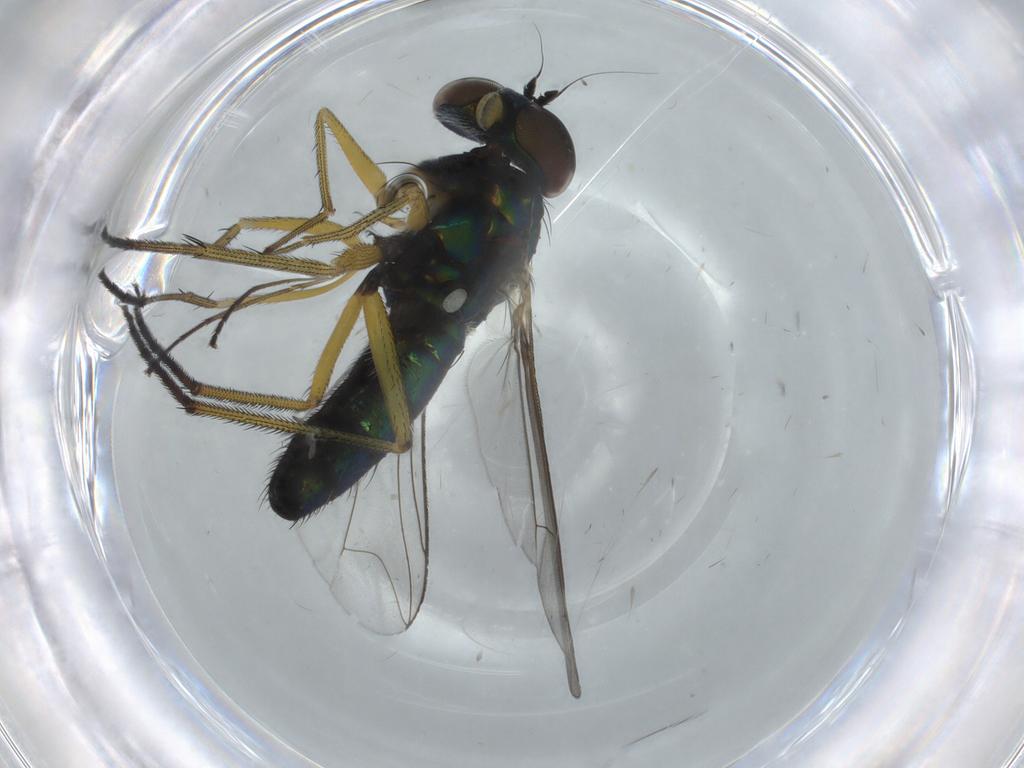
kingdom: Animalia
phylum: Arthropoda
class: Insecta
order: Diptera
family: Dolichopodidae
